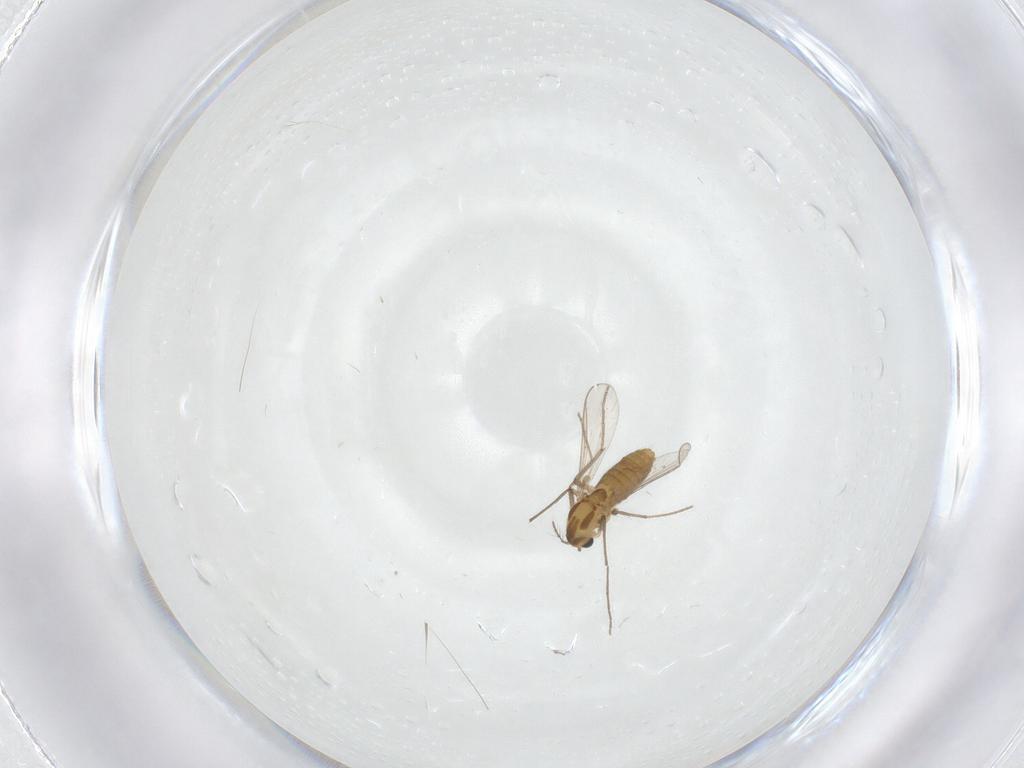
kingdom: Animalia
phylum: Arthropoda
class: Insecta
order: Diptera
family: Chironomidae
